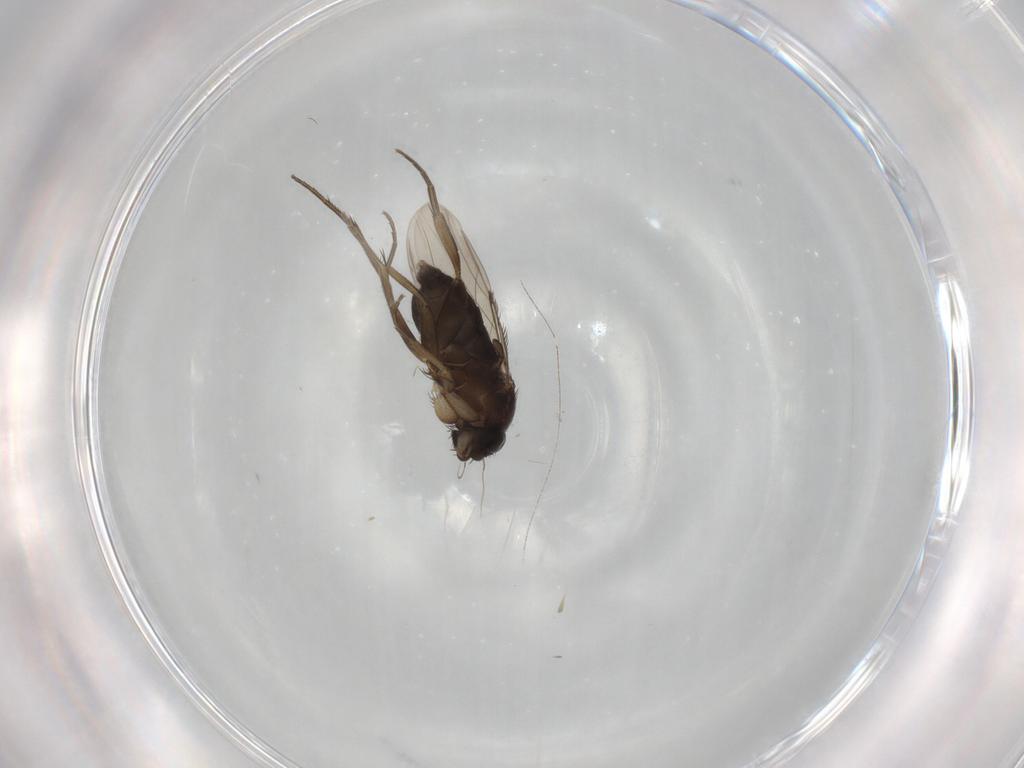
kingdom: Animalia
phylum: Arthropoda
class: Insecta
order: Diptera
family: Phoridae
